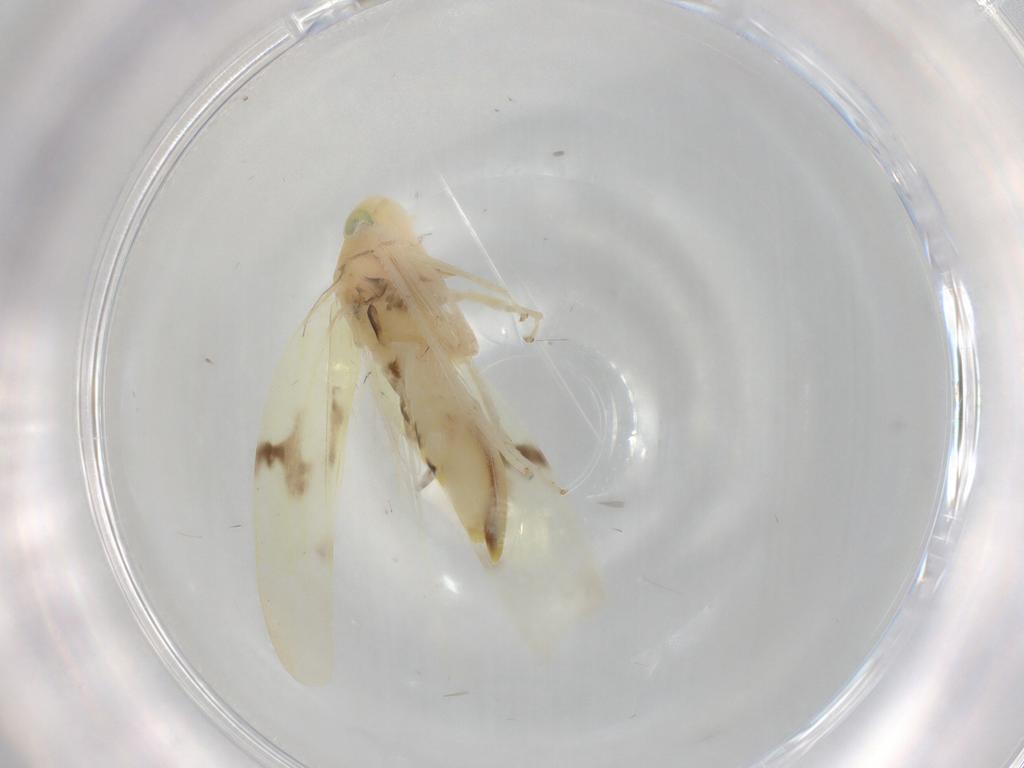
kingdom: Animalia
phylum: Arthropoda
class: Insecta
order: Hemiptera
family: Cicadellidae
